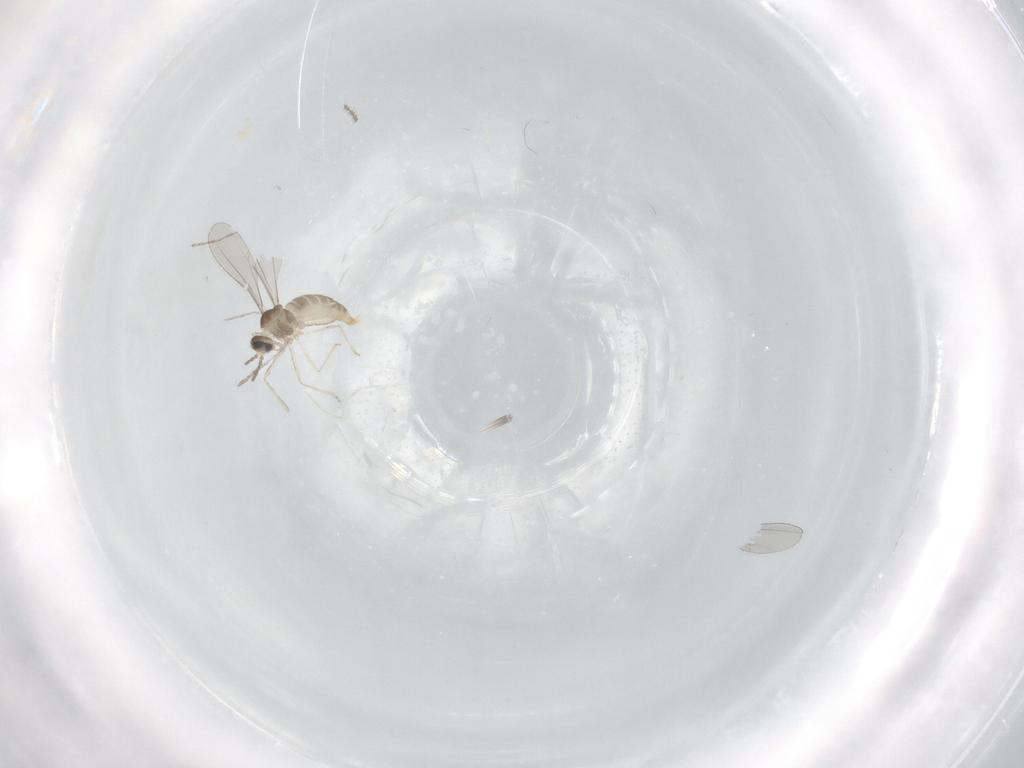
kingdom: Animalia
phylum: Arthropoda
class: Insecta
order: Diptera
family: Cecidomyiidae
